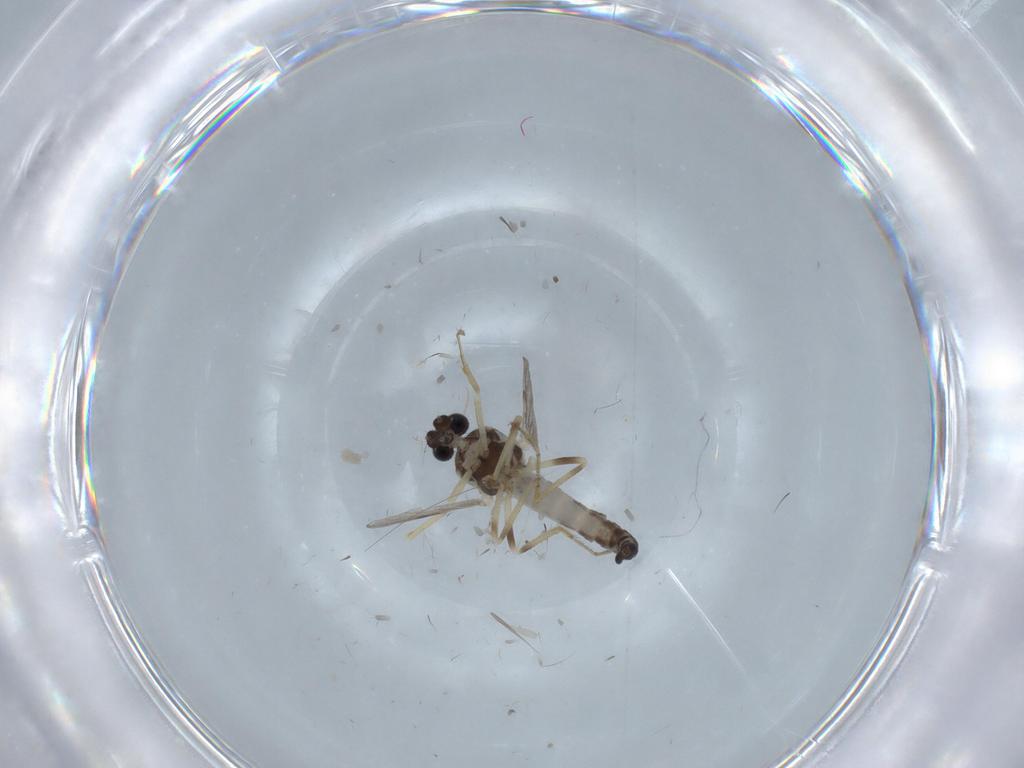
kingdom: Animalia
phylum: Arthropoda
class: Insecta
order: Diptera
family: Ceratopogonidae
